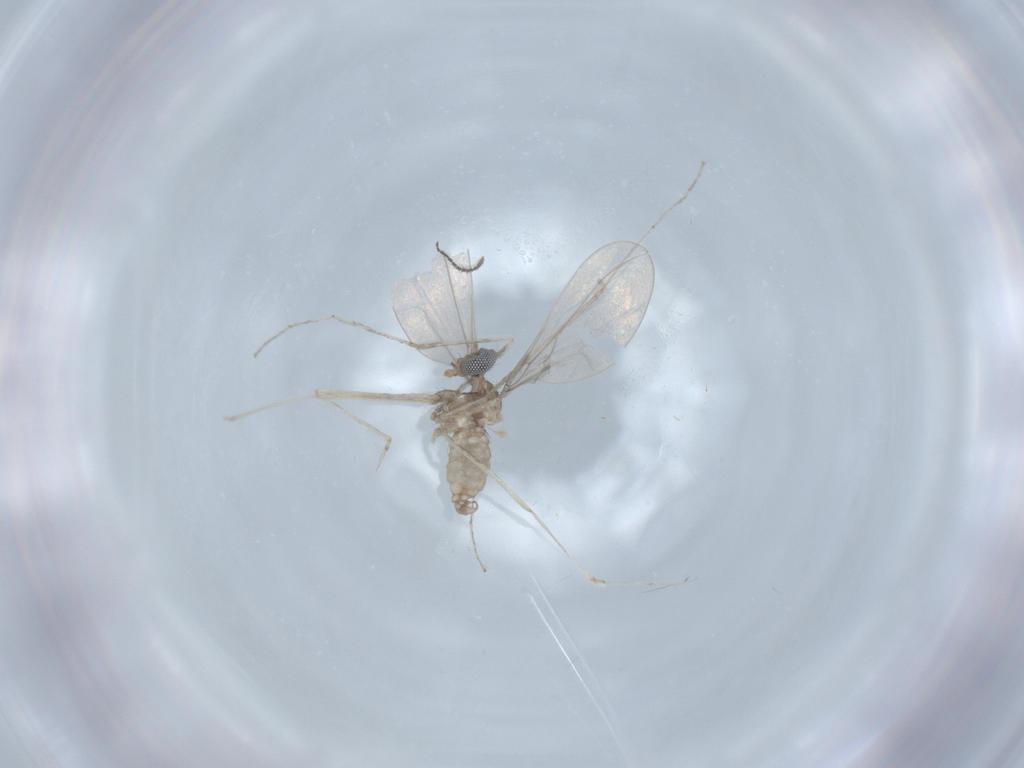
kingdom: Animalia
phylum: Arthropoda
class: Insecta
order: Diptera
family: Cecidomyiidae
